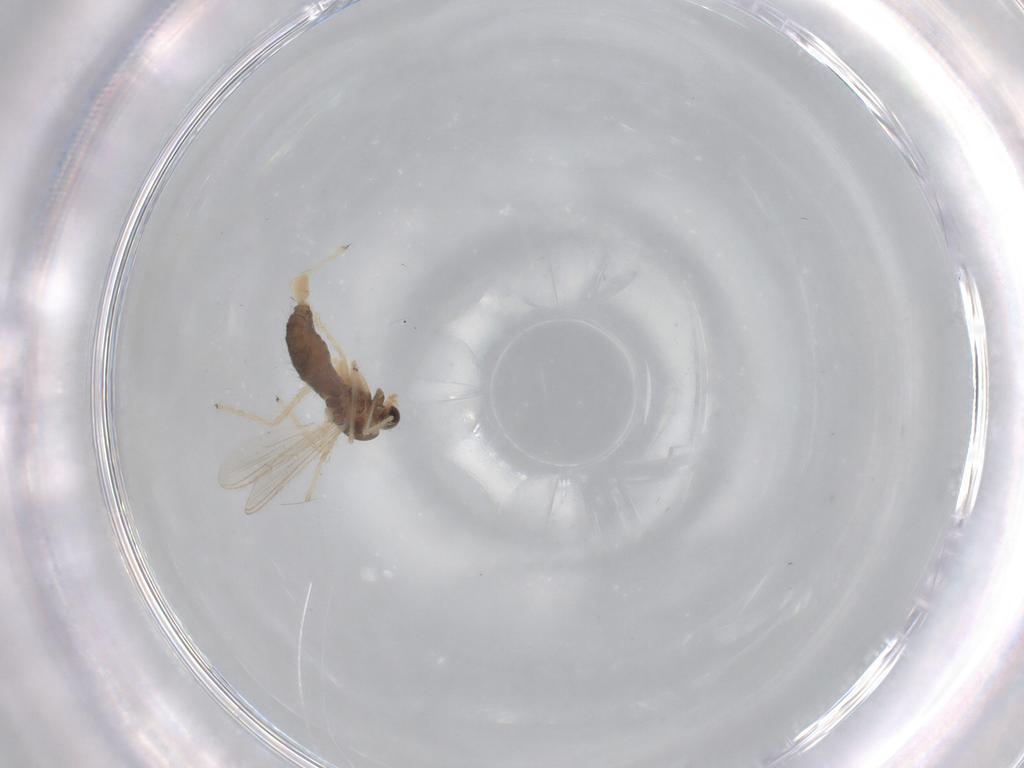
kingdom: Animalia
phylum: Arthropoda
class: Insecta
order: Diptera
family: Chironomidae
